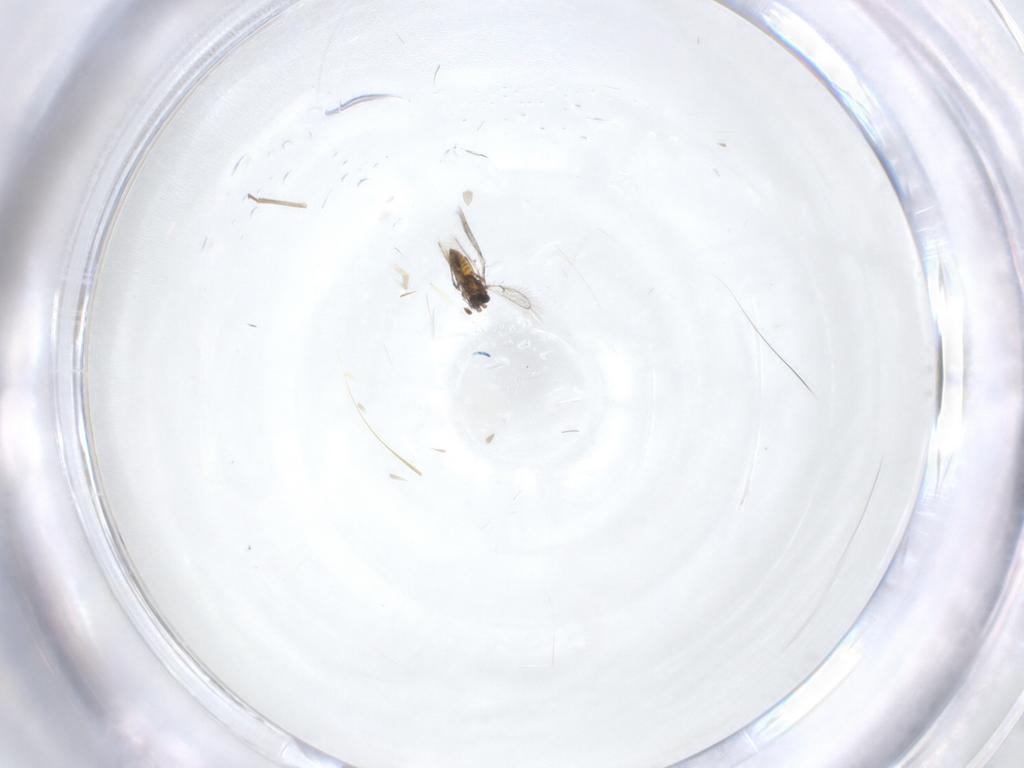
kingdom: Animalia
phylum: Arthropoda
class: Insecta
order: Hymenoptera
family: Trichogrammatidae
